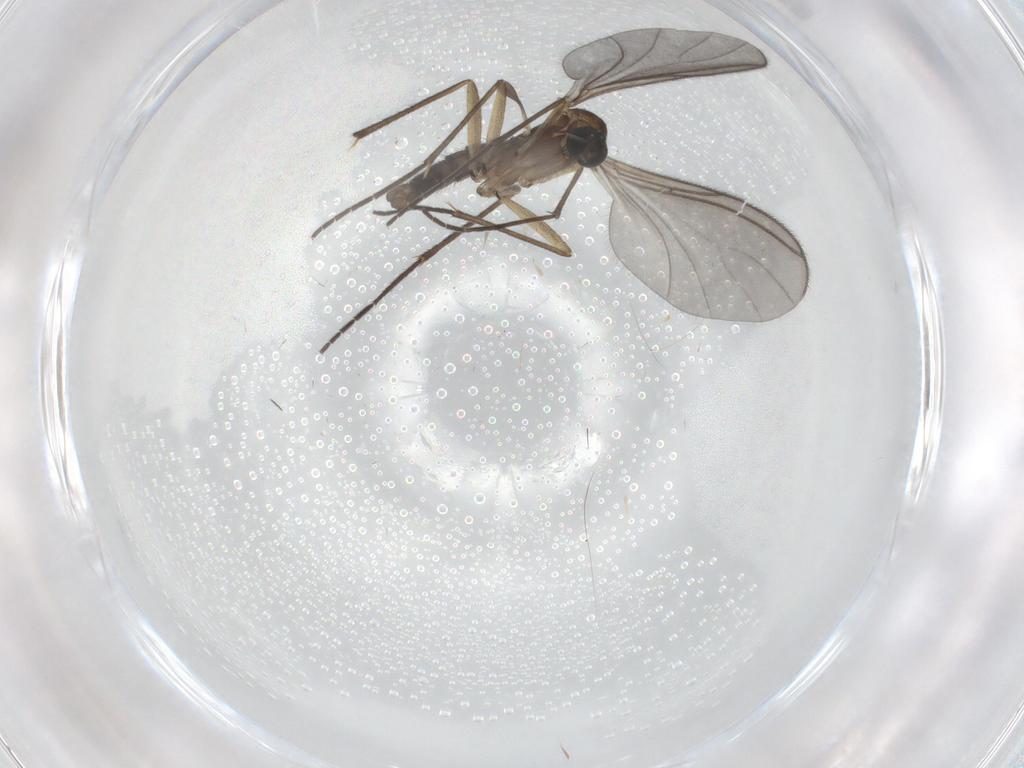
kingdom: Animalia
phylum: Arthropoda
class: Insecta
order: Diptera
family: Sciaridae
